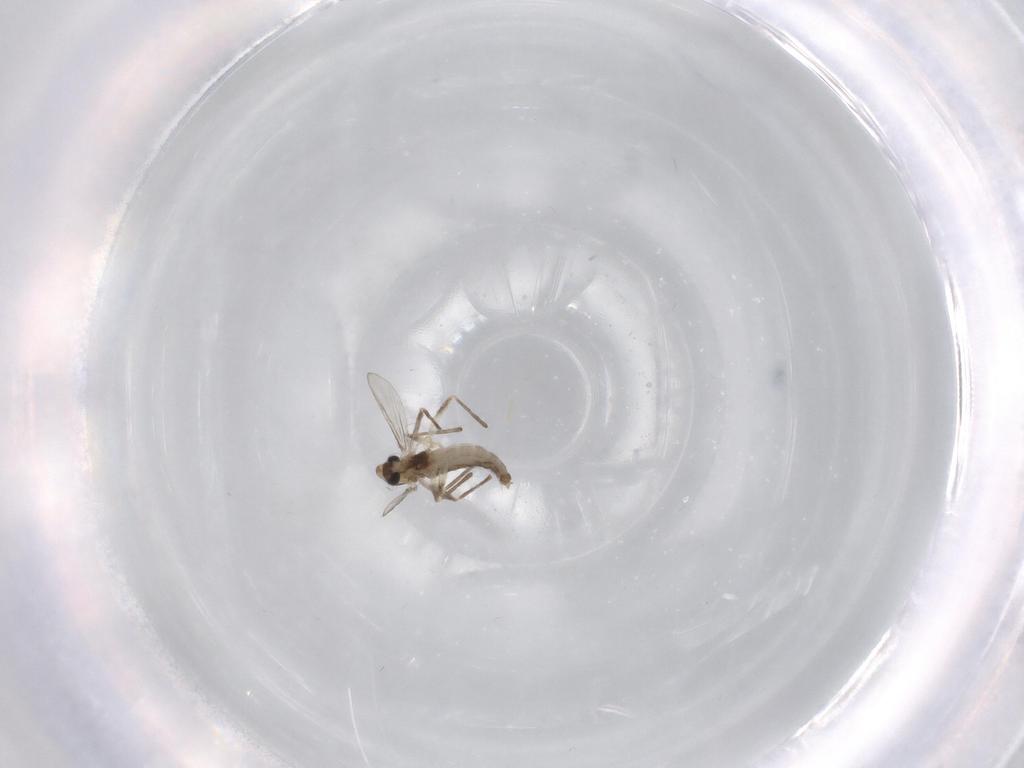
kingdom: Animalia
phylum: Arthropoda
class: Insecta
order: Diptera
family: Chironomidae
